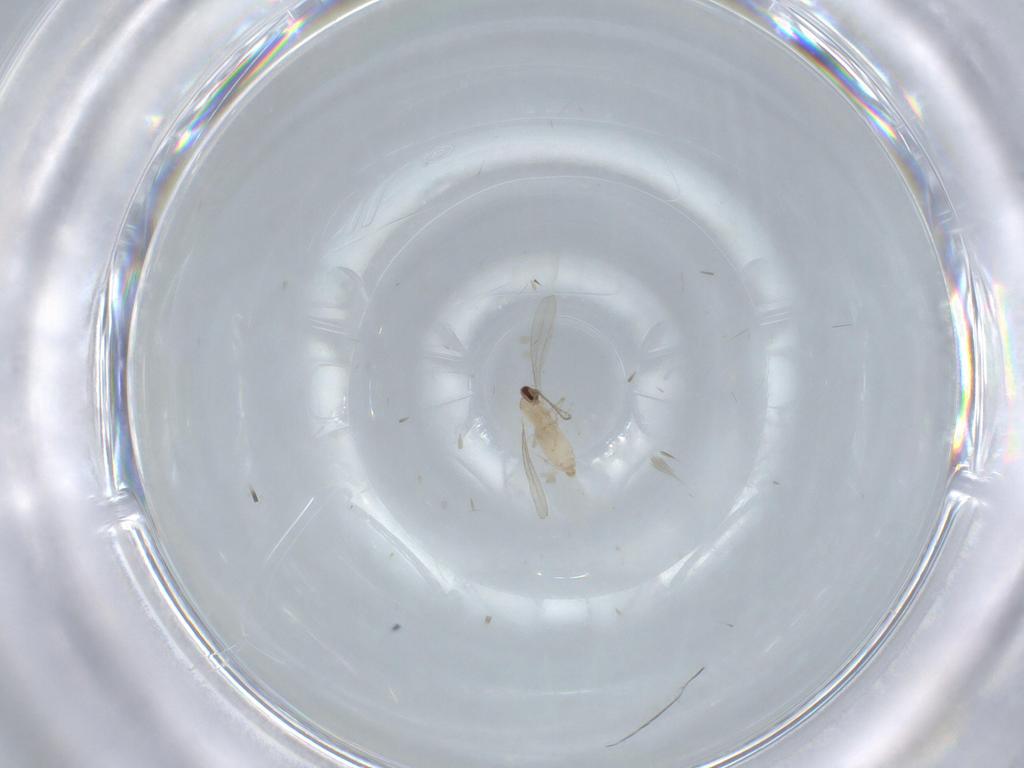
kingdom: Animalia
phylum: Arthropoda
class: Insecta
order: Diptera
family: Cecidomyiidae
